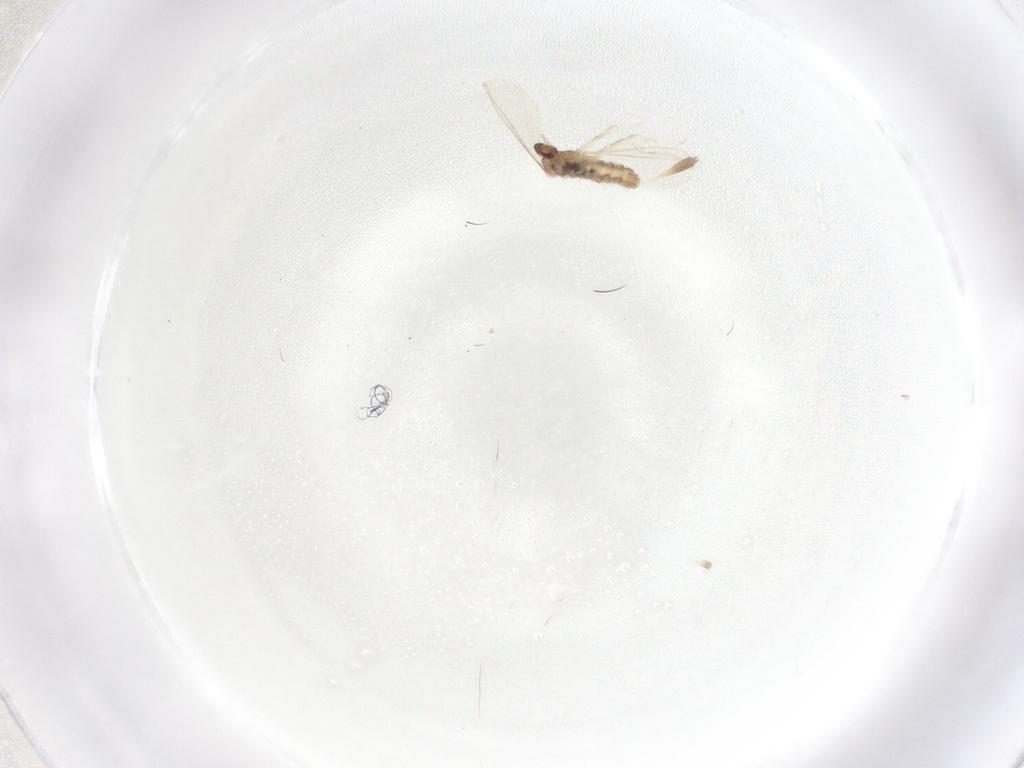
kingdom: Animalia
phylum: Arthropoda
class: Insecta
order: Diptera
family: Cecidomyiidae
